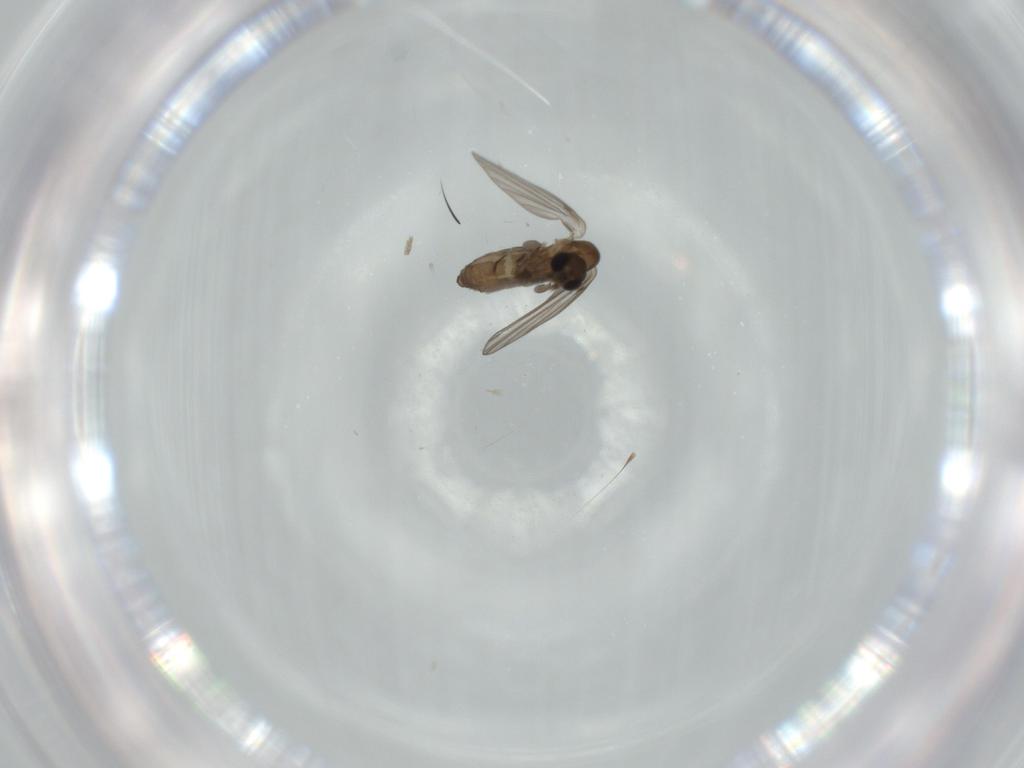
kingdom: Animalia
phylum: Arthropoda
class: Insecta
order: Diptera
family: Psychodidae
